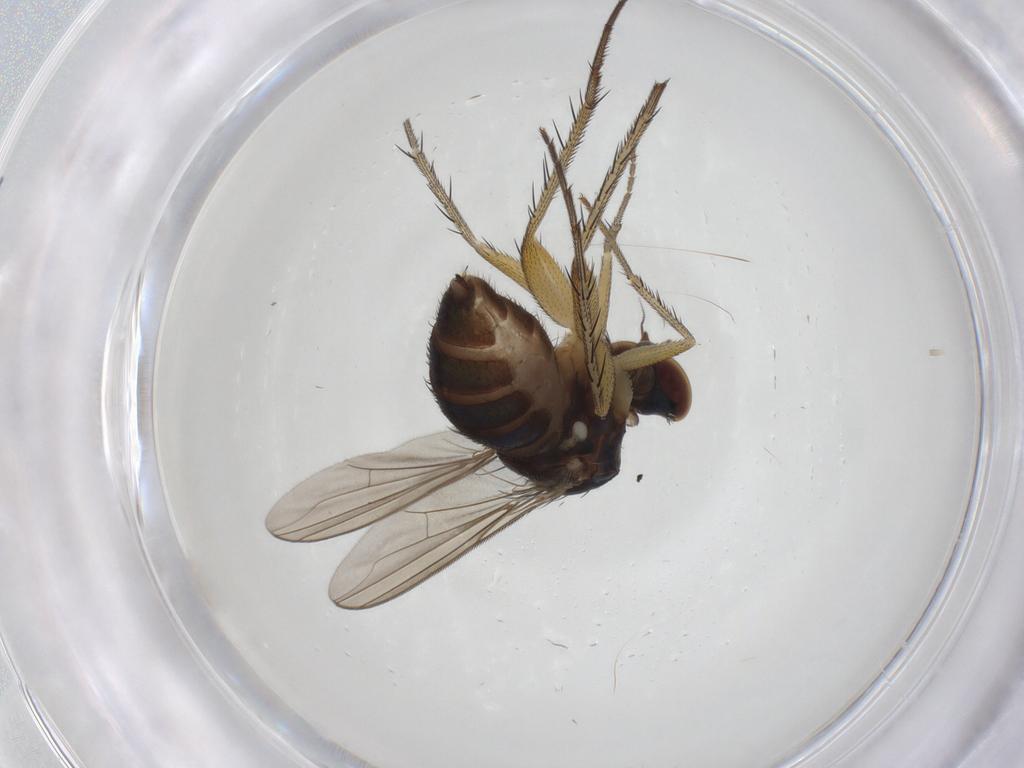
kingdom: Animalia
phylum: Arthropoda
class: Insecta
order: Diptera
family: Dolichopodidae
